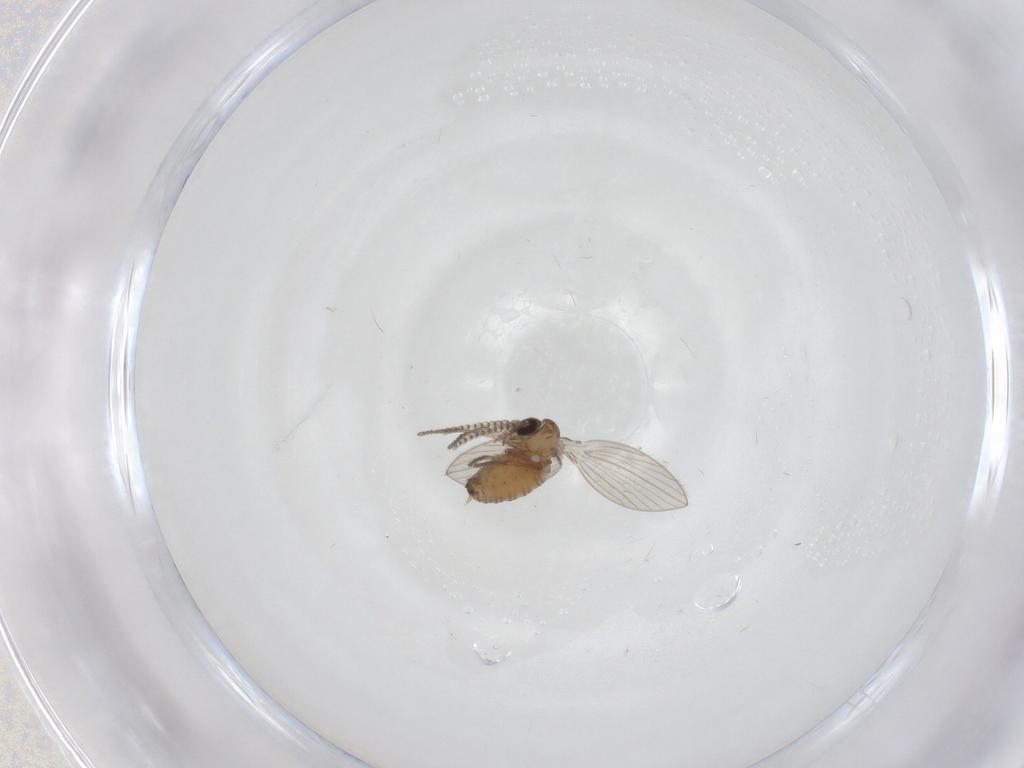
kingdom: Animalia
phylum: Arthropoda
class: Insecta
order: Diptera
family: Psychodidae
